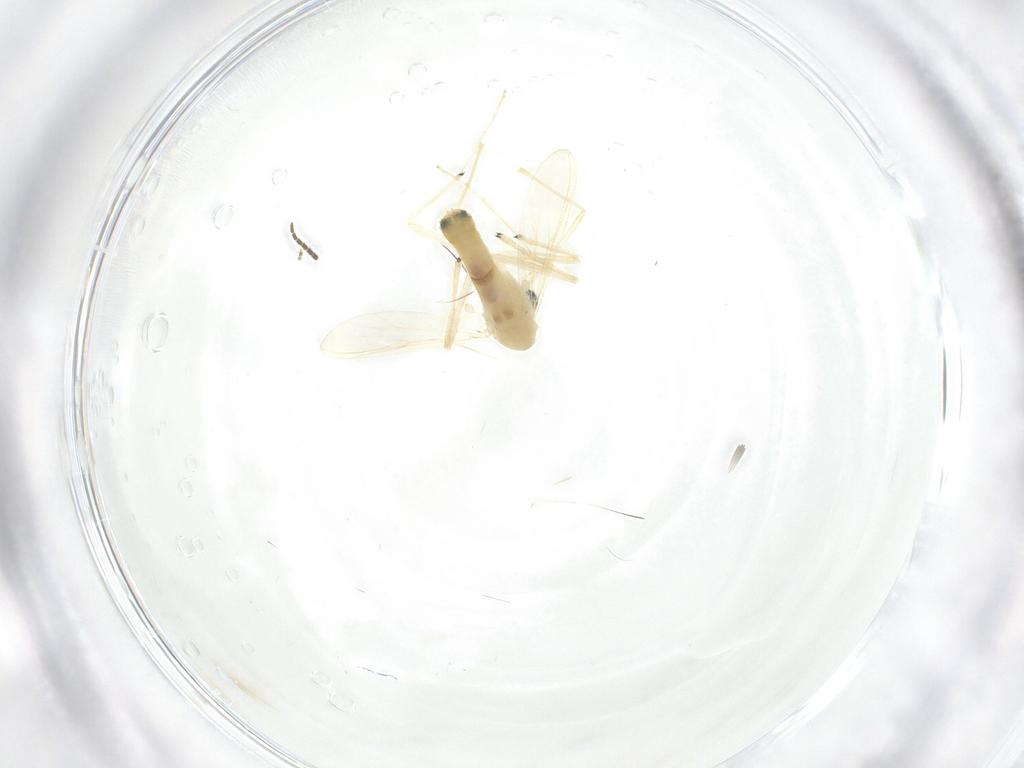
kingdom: Animalia
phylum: Arthropoda
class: Insecta
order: Diptera
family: Chironomidae
